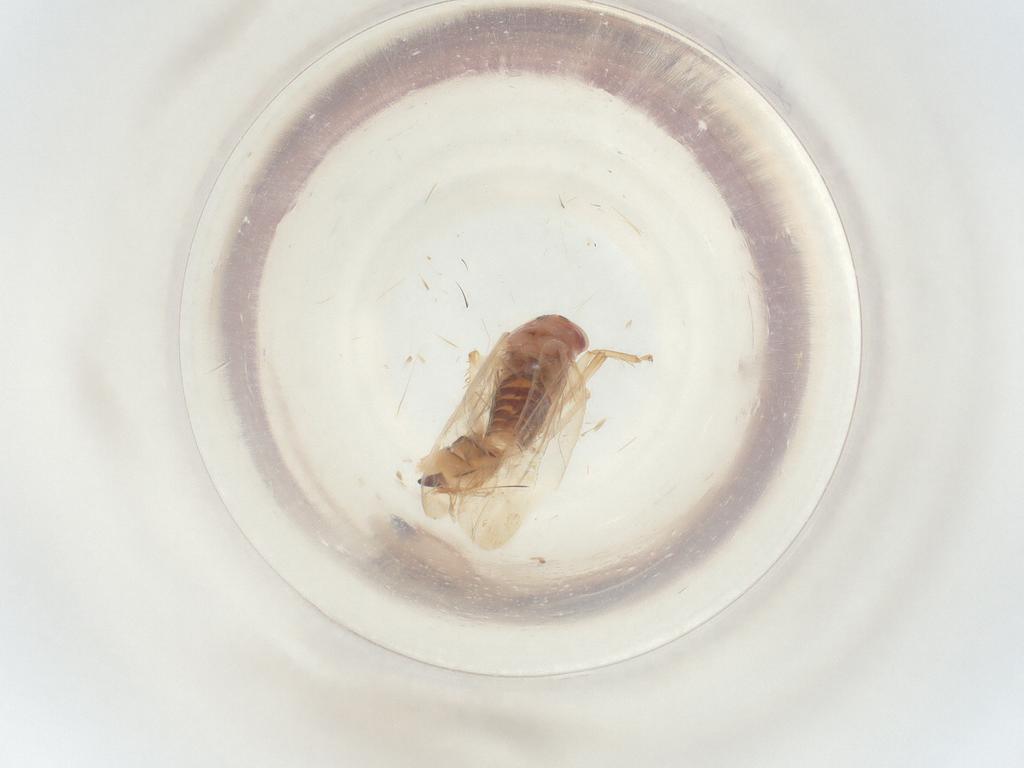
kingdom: Animalia
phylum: Arthropoda
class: Insecta
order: Hemiptera
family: Cicadellidae
